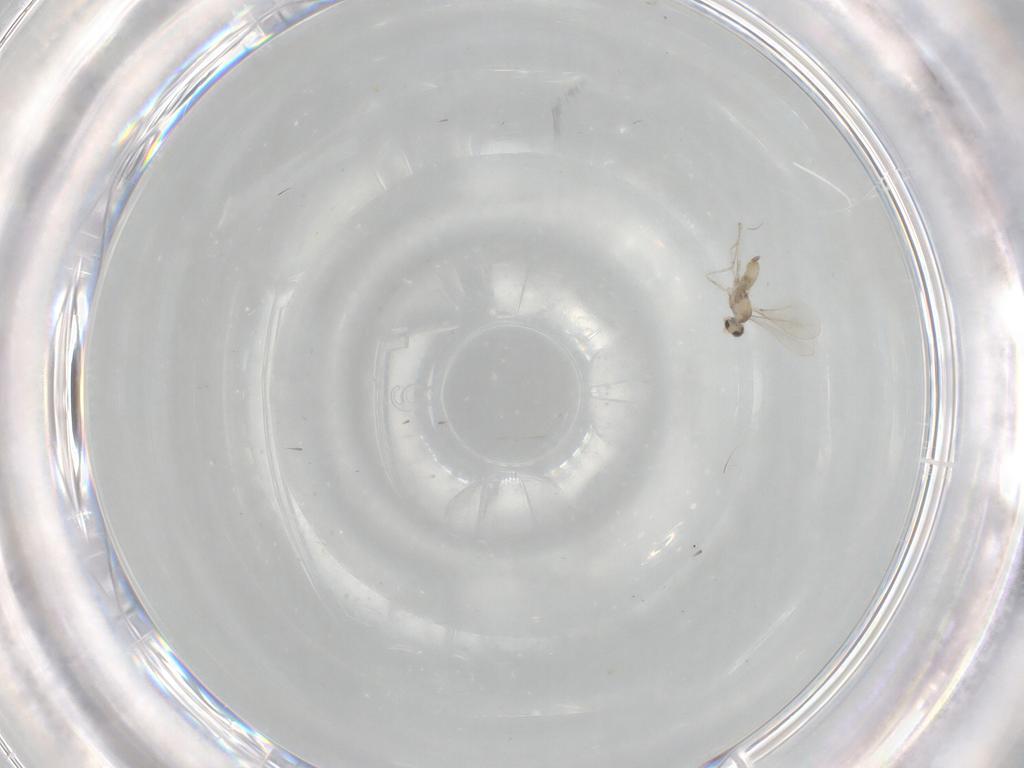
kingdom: Animalia
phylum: Arthropoda
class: Insecta
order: Diptera
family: Cecidomyiidae
